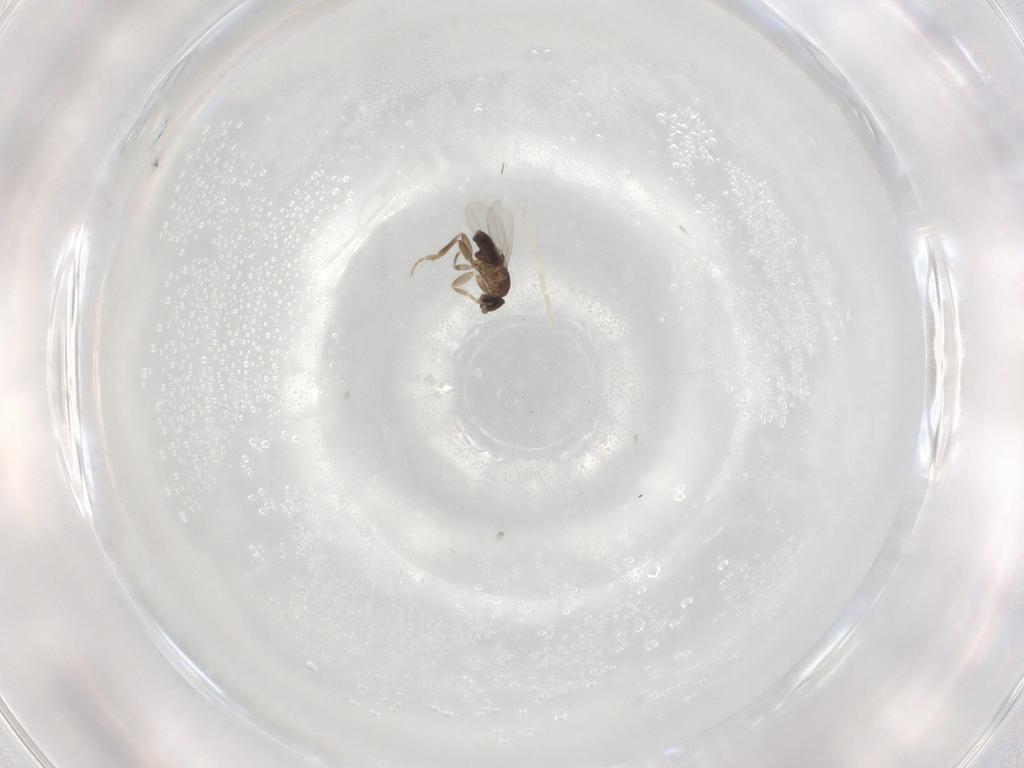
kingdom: Animalia
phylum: Arthropoda
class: Insecta
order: Diptera
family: Phoridae
